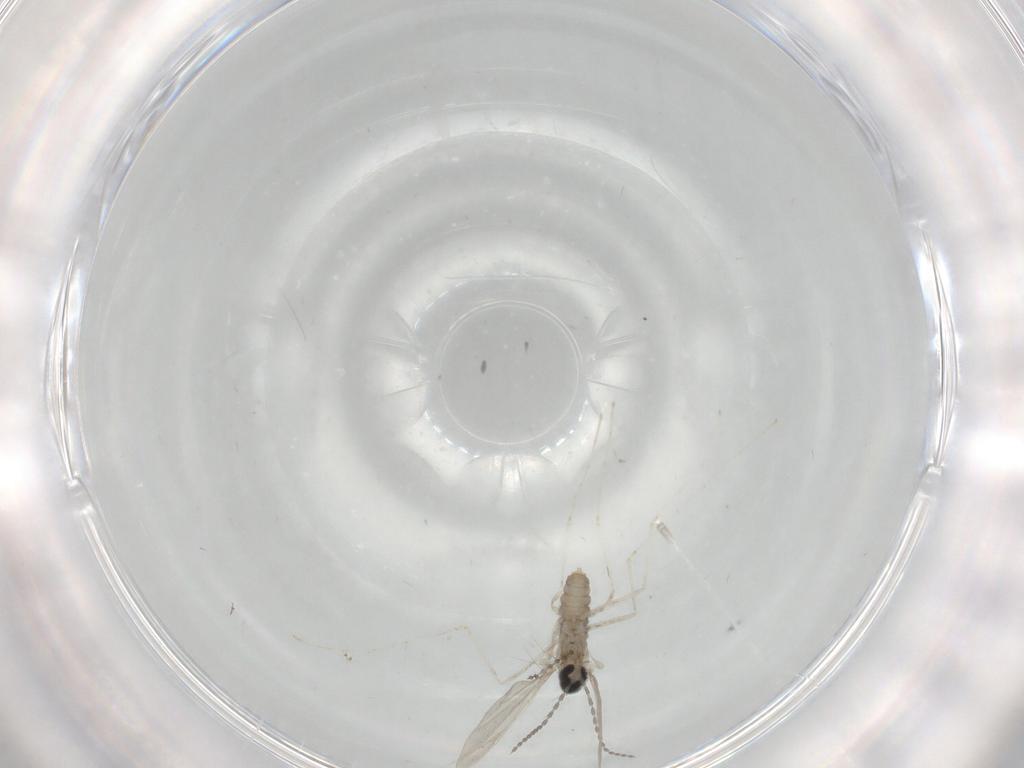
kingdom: Animalia
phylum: Arthropoda
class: Insecta
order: Diptera
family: Cecidomyiidae
